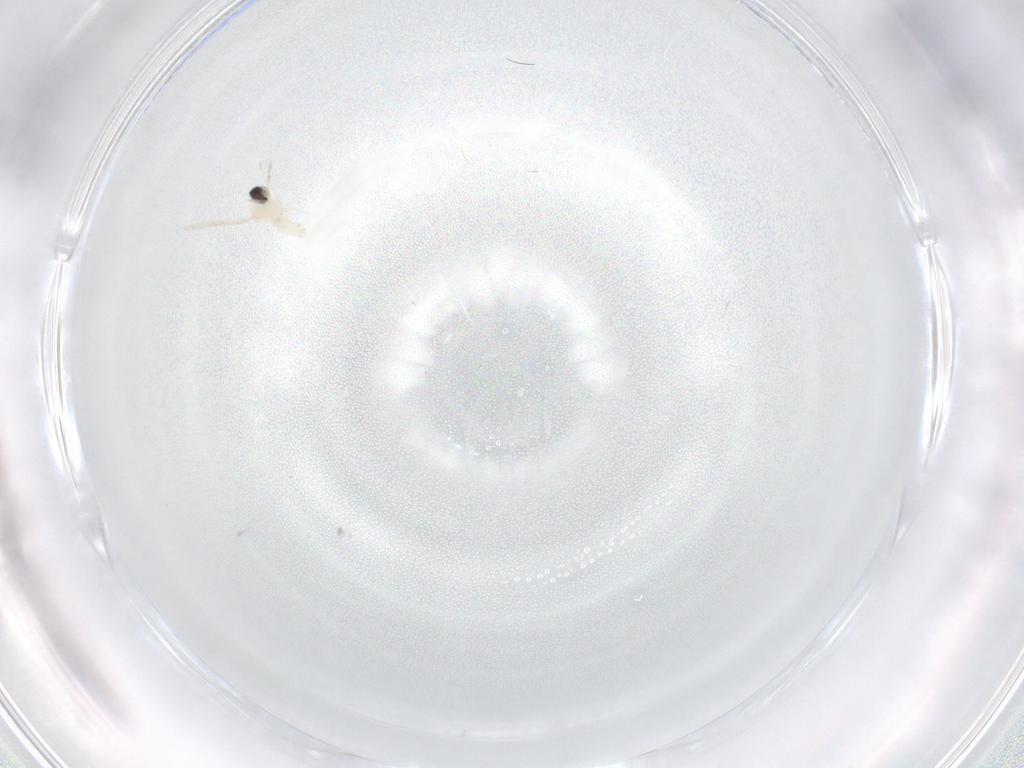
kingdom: Animalia
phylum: Arthropoda
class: Insecta
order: Diptera
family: Cecidomyiidae
